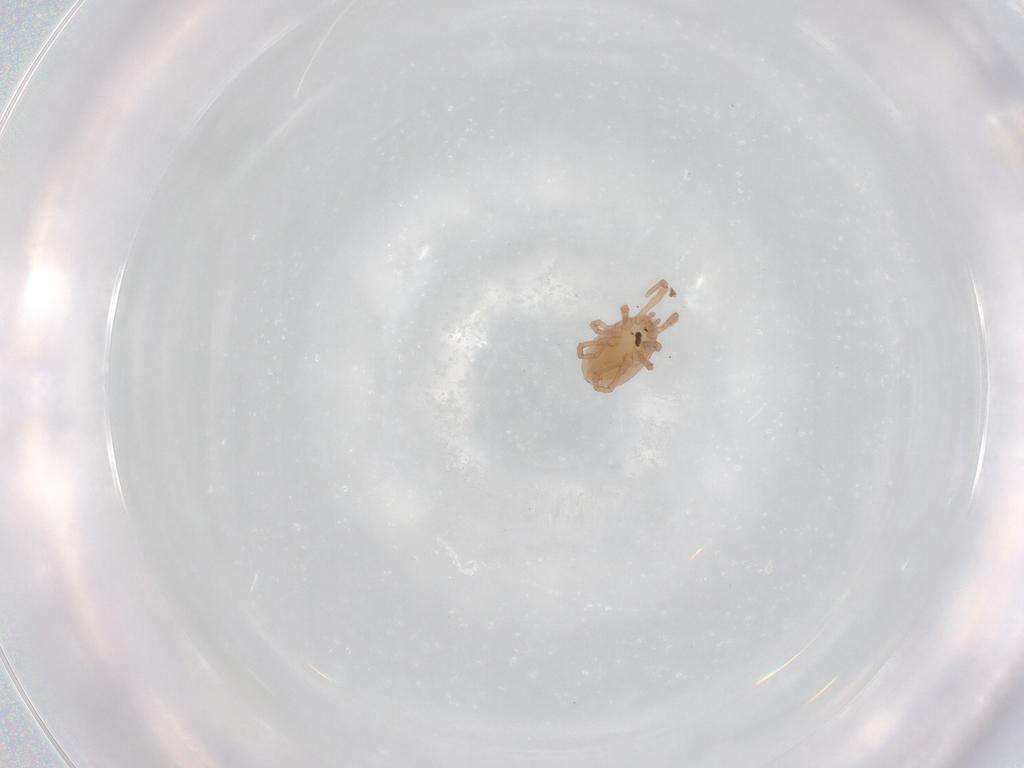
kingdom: Animalia
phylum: Arthropoda
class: Arachnida
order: Mesostigmata
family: Parasitidae
